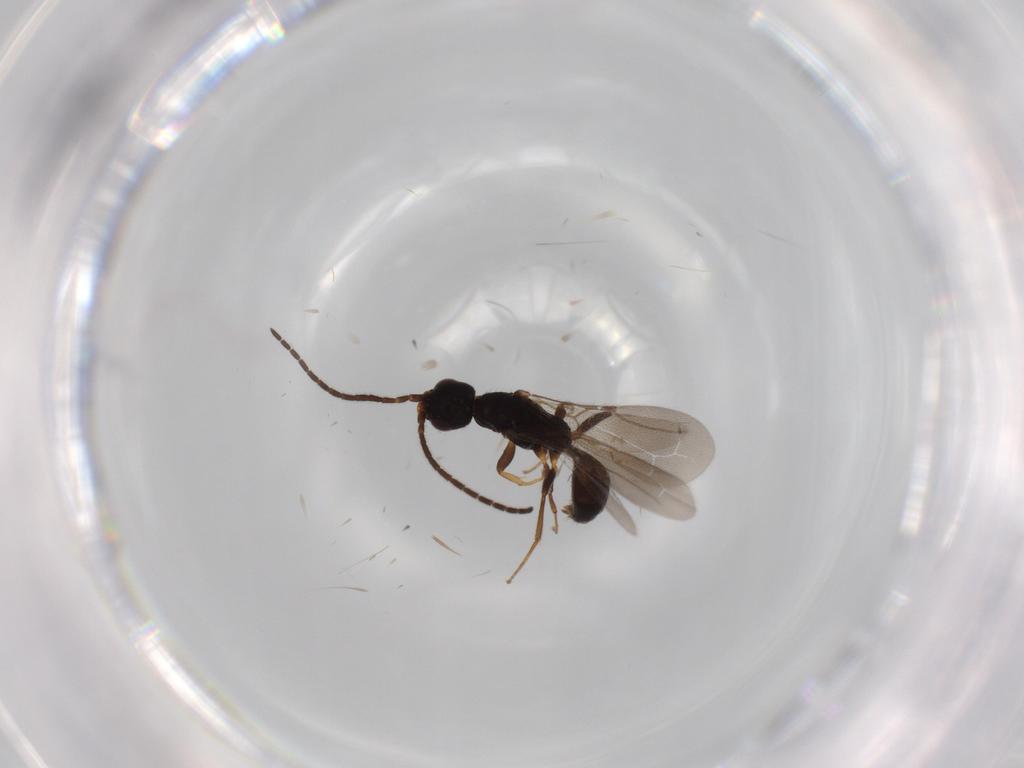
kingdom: Animalia
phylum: Arthropoda
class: Insecta
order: Hymenoptera
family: Bethylidae
